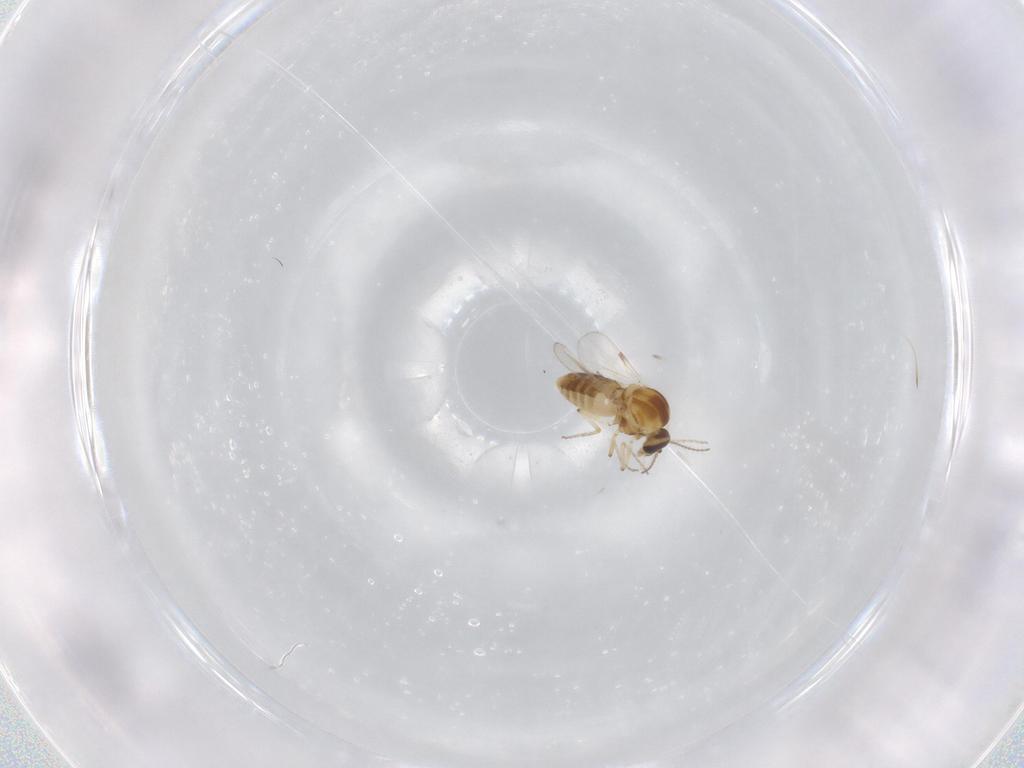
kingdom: Animalia
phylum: Arthropoda
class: Insecta
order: Diptera
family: Ceratopogonidae
